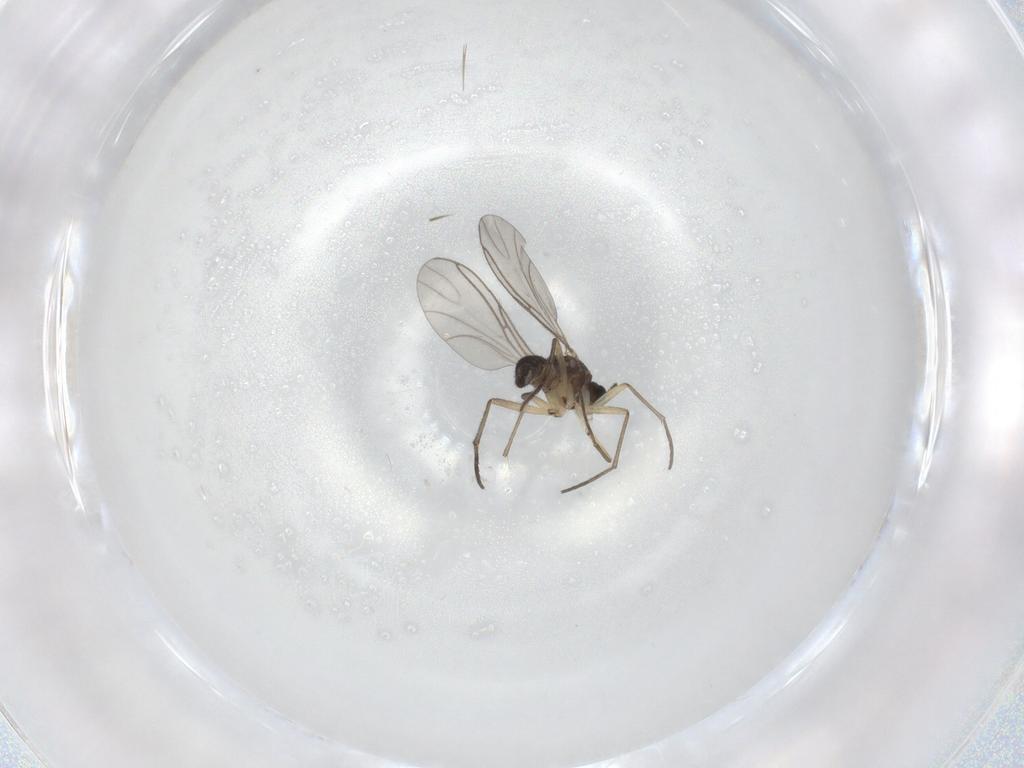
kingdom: Animalia
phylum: Arthropoda
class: Insecta
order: Diptera
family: Sciaridae
